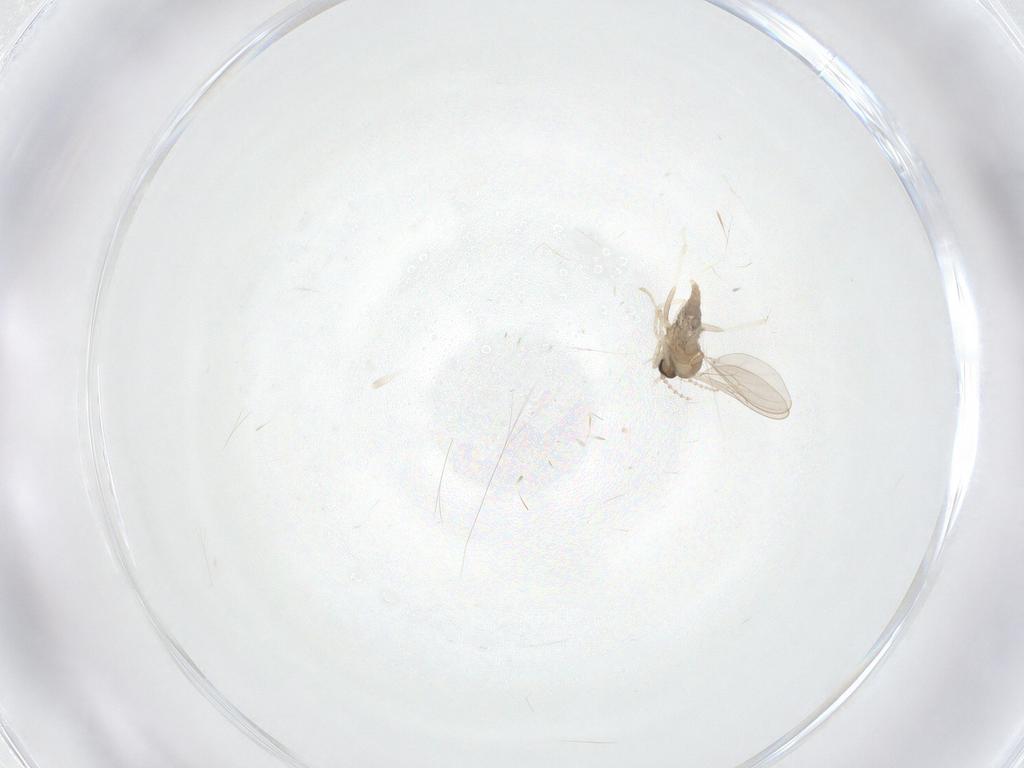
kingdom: Animalia
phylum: Arthropoda
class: Insecta
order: Diptera
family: Cecidomyiidae
